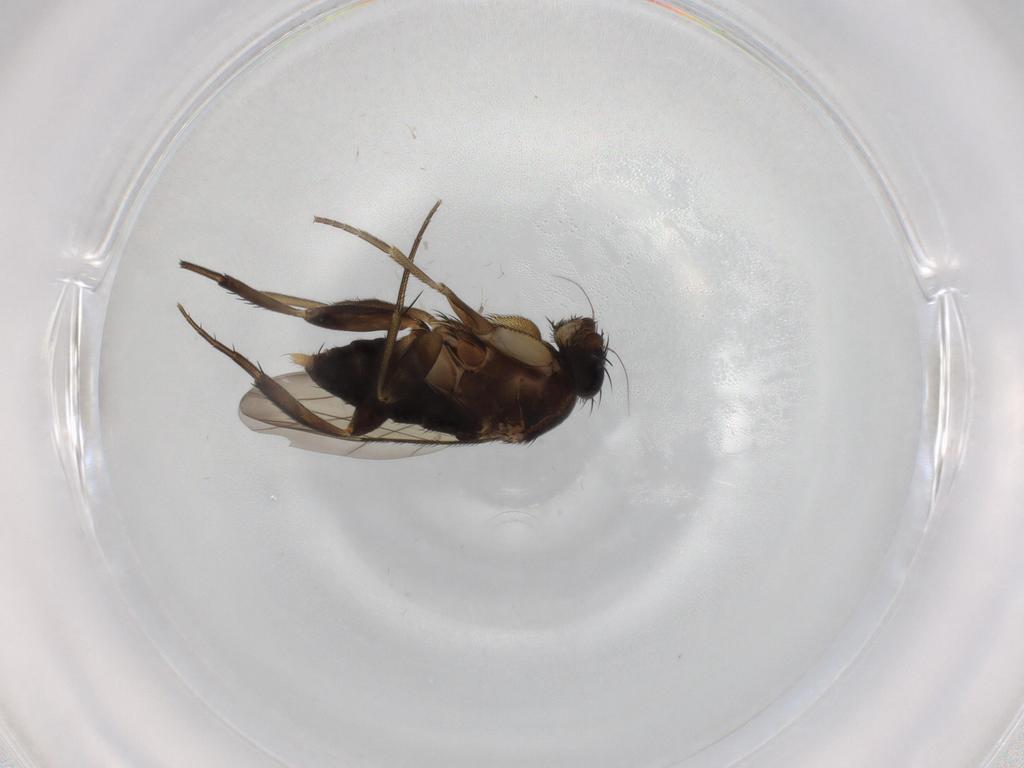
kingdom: Animalia
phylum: Arthropoda
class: Insecta
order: Diptera
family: Phoridae
